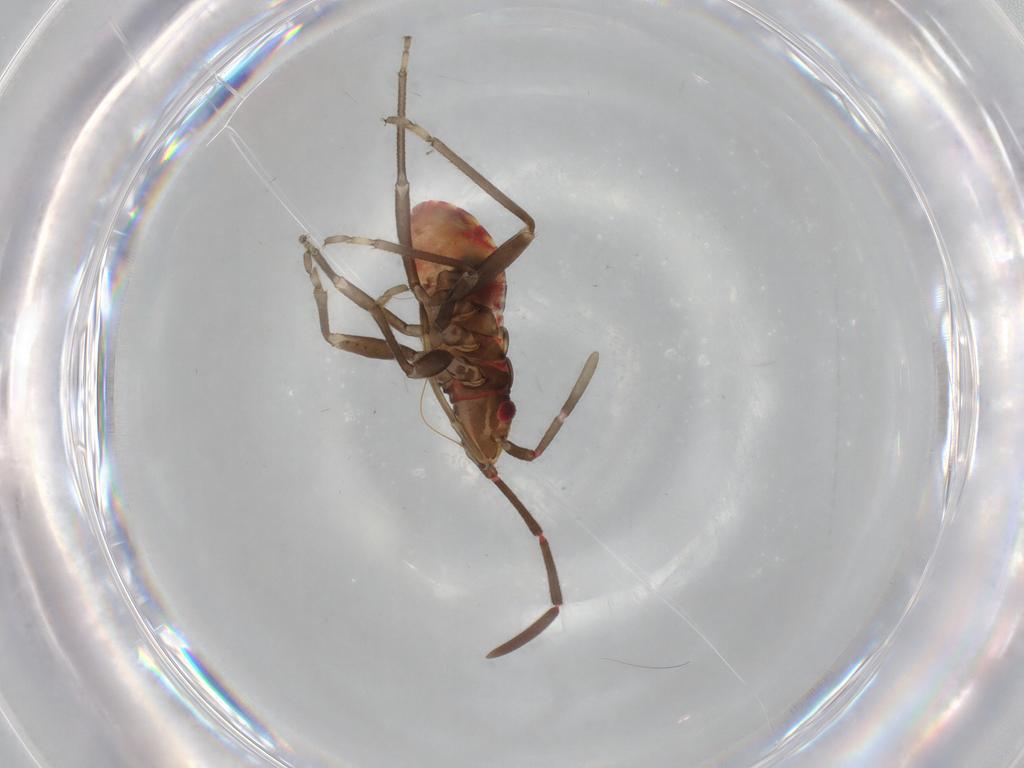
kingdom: Animalia
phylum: Arthropoda
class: Insecta
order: Hemiptera
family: Rhyparochromidae
